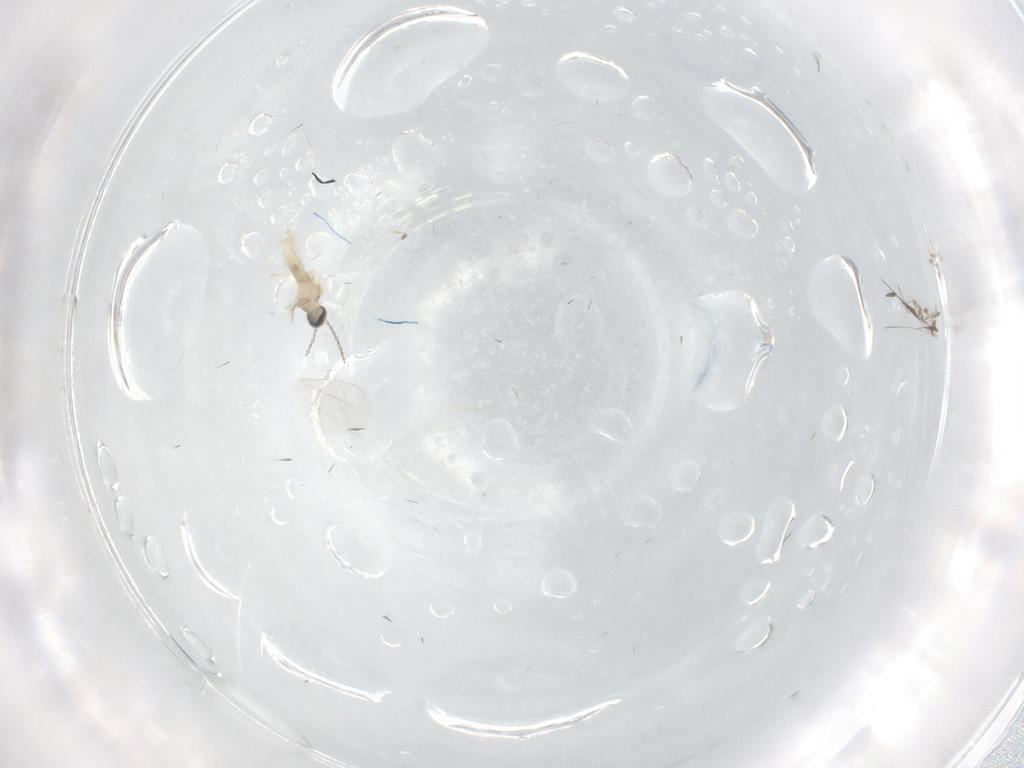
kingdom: Animalia
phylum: Arthropoda
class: Insecta
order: Diptera
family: Cecidomyiidae
